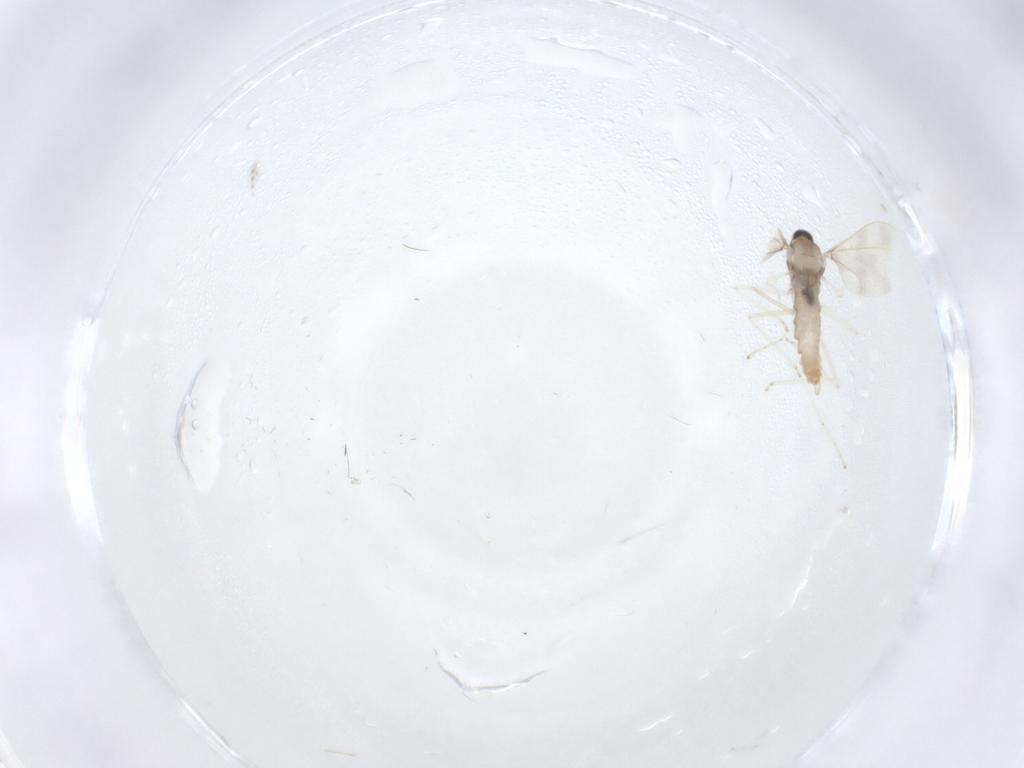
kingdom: Animalia
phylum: Arthropoda
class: Insecta
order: Diptera
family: Cecidomyiidae
